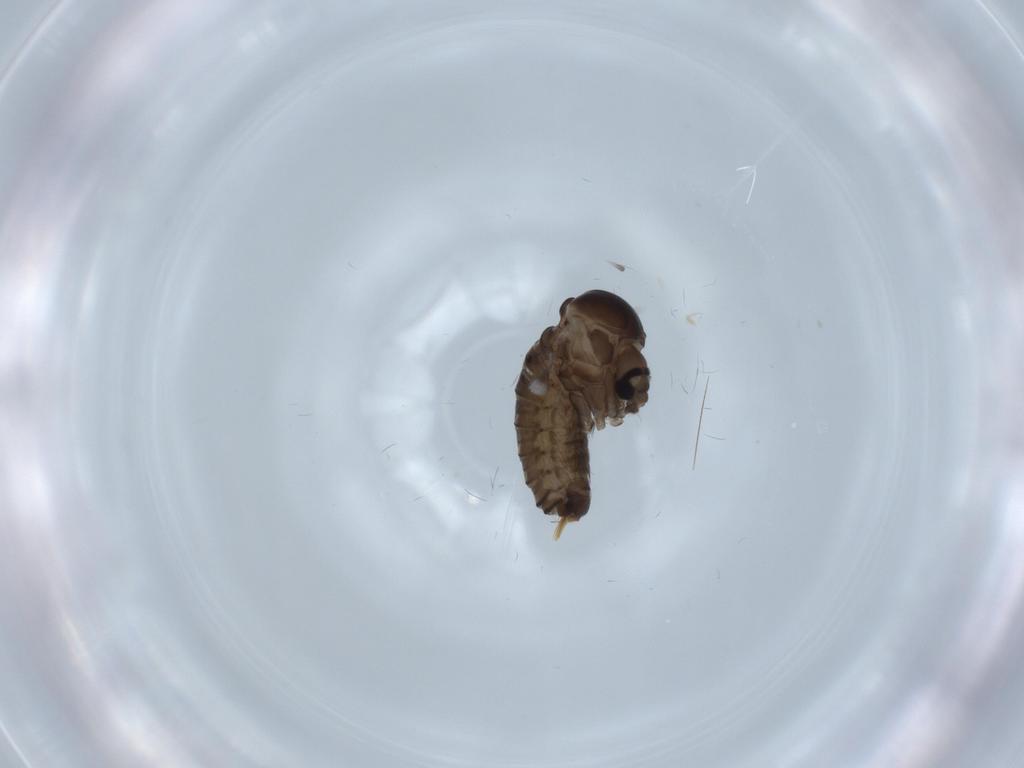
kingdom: Animalia
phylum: Arthropoda
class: Insecta
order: Diptera
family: Psychodidae
